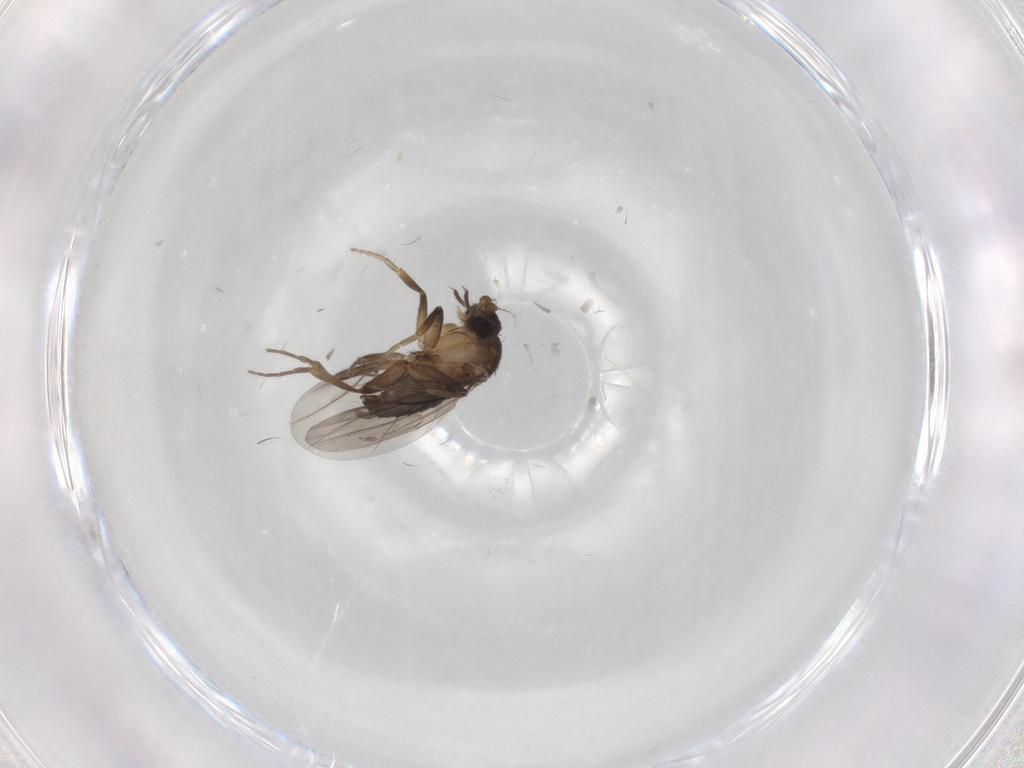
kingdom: Animalia
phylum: Arthropoda
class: Insecta
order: Diptera
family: Phoridae
